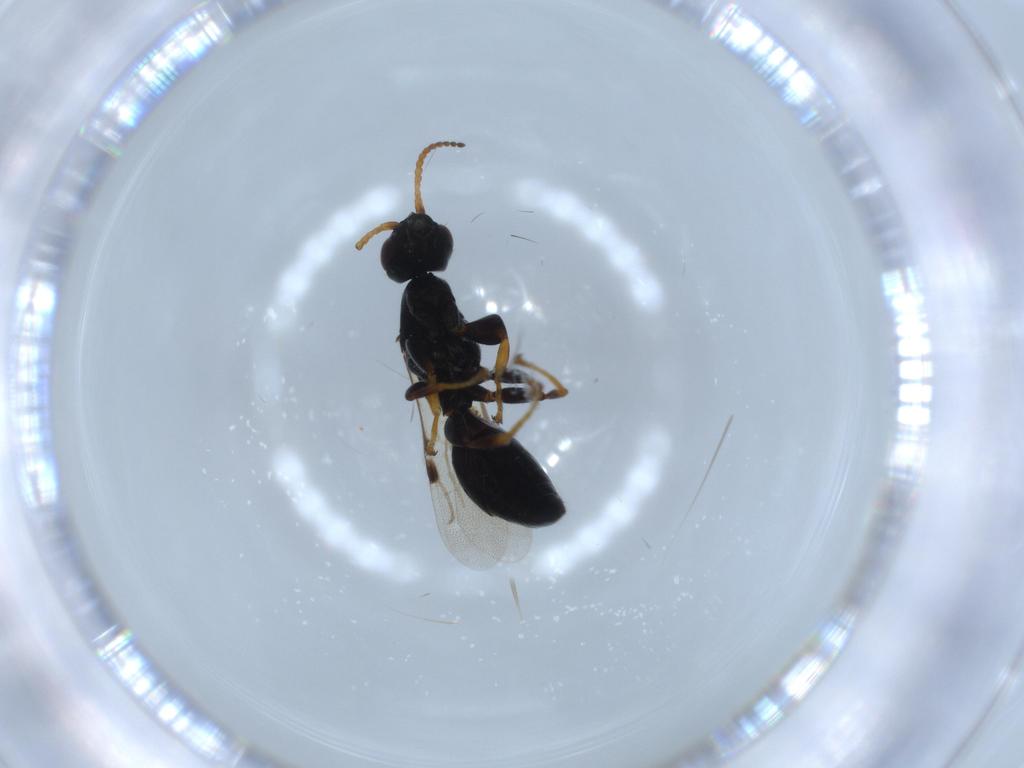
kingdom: Animalia
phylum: Arthropoda
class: Insecta
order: Hymenoptera
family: Bethylidae
